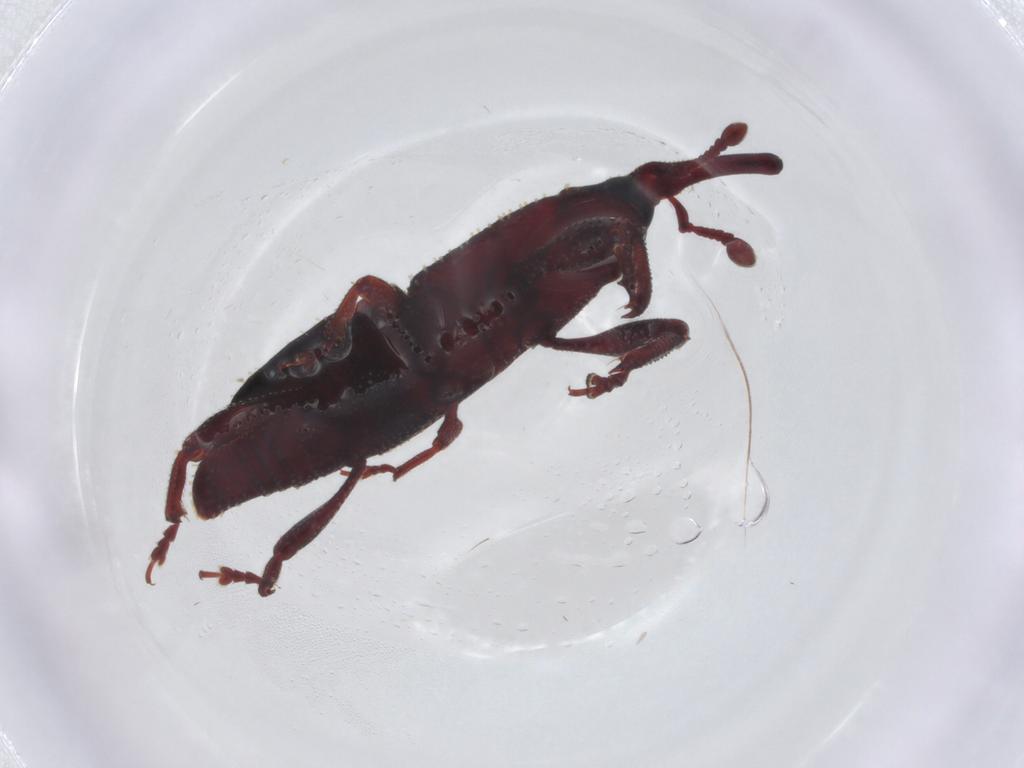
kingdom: Animalia
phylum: Arthropoda
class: Insecta
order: Coleoptera
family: Curculionidae
